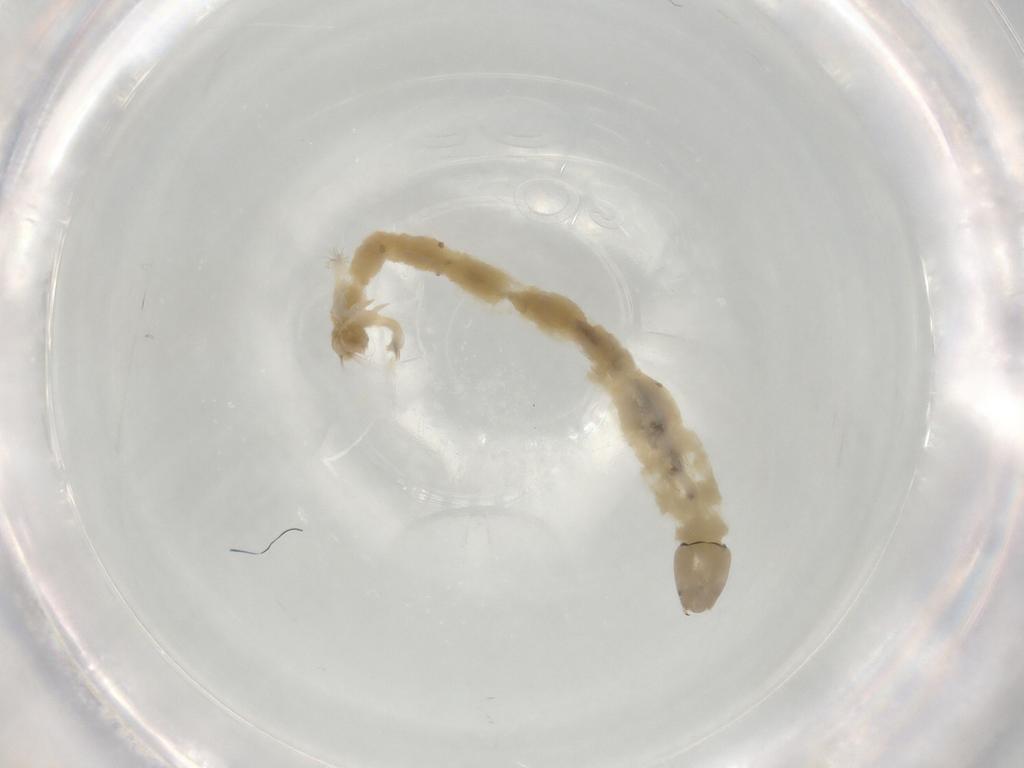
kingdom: Animalia
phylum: Arthropoda
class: Insecta
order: Diptera
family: Chironomidae
